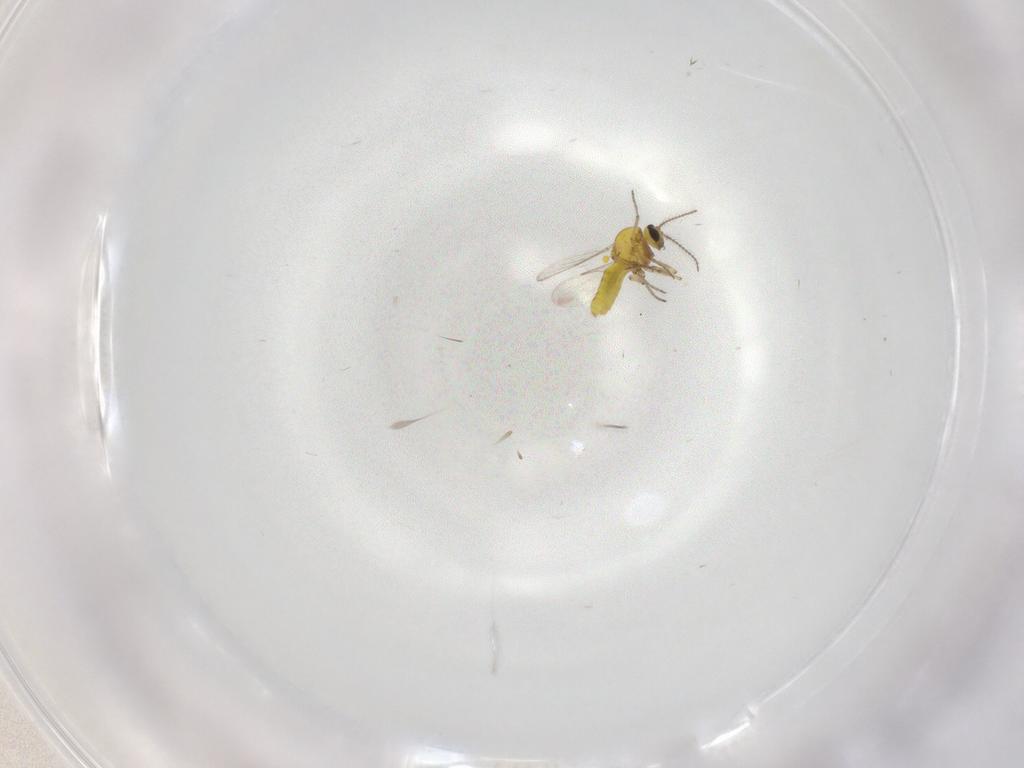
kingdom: Animalia
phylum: Arthropoda
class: Insecta
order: Diptera
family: Ceratopogonidae
